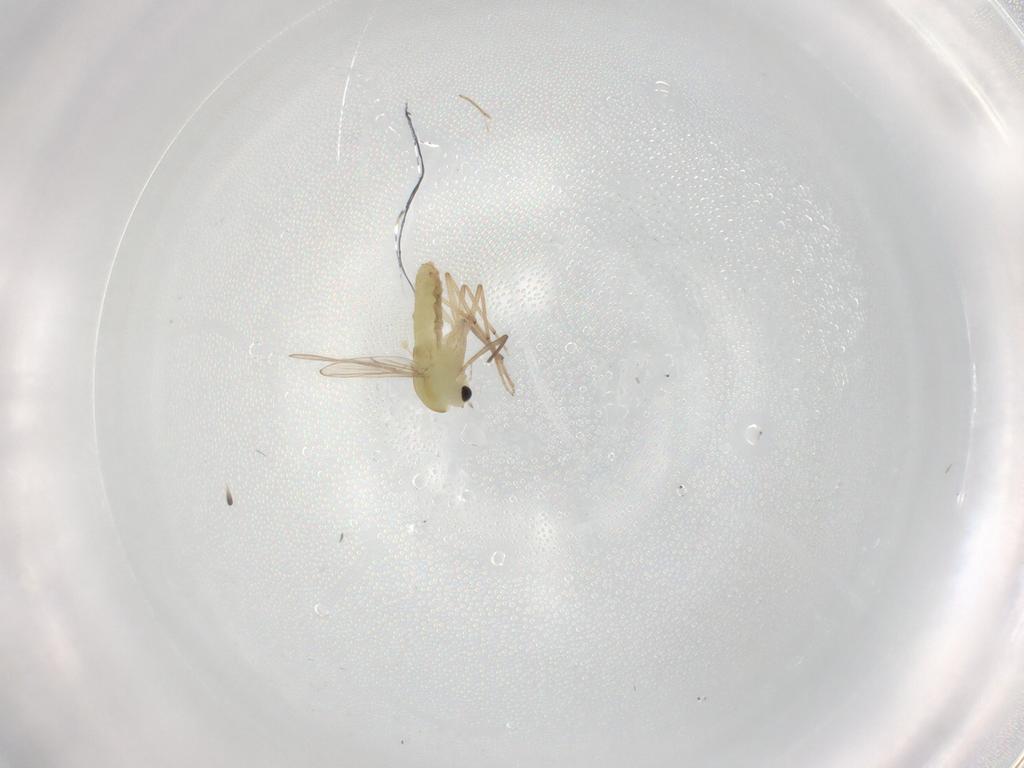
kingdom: Animalia
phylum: Arthropoda
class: Insecta
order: Diptera
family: Chironomidae
